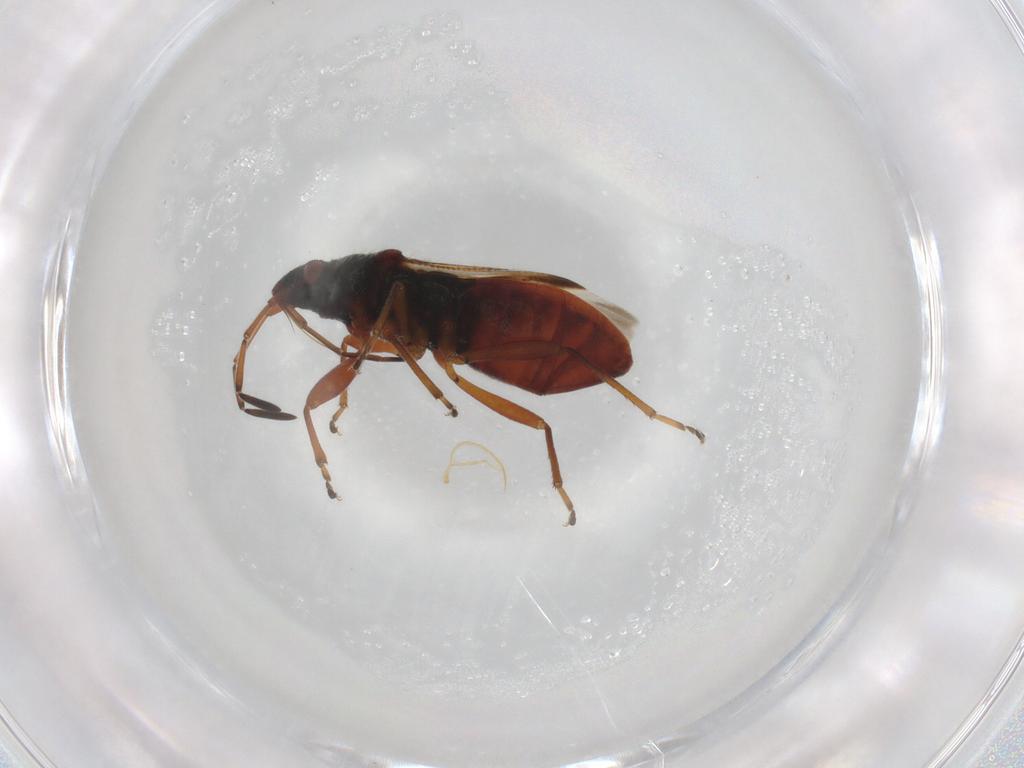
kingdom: Animalia
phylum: Arthropoda
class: Insecta
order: Hemiptera
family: Rhyparochromidae
